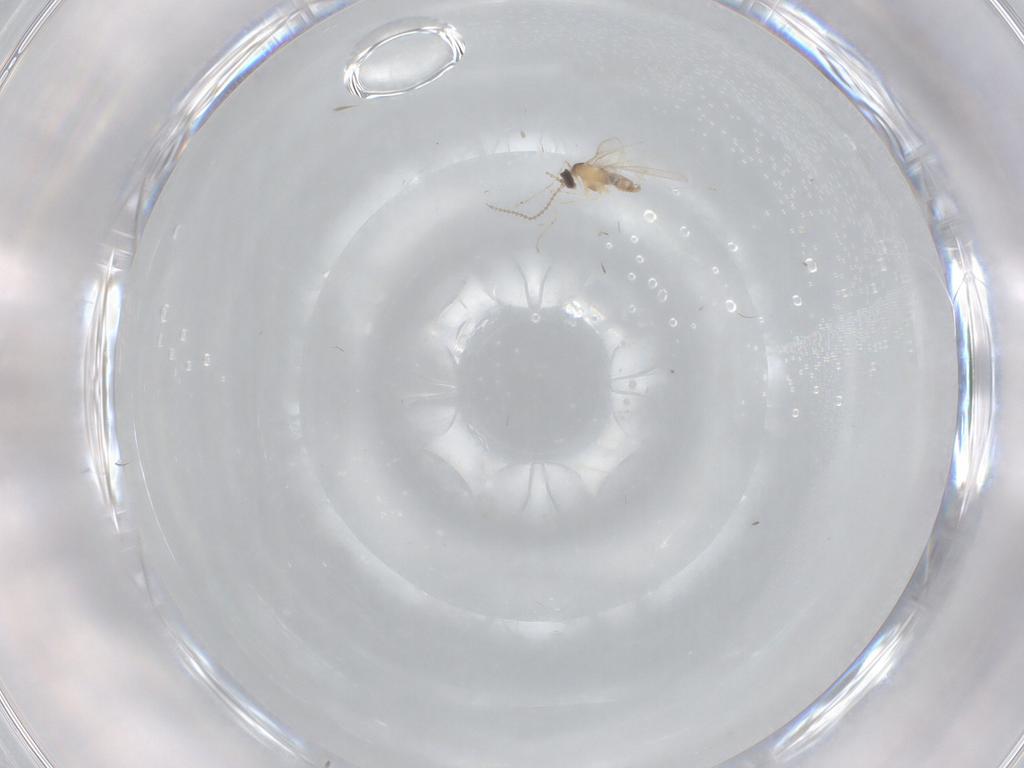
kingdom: Animalia
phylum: Arthropoda
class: Insecta
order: Diptera
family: Cecidomyiidae
